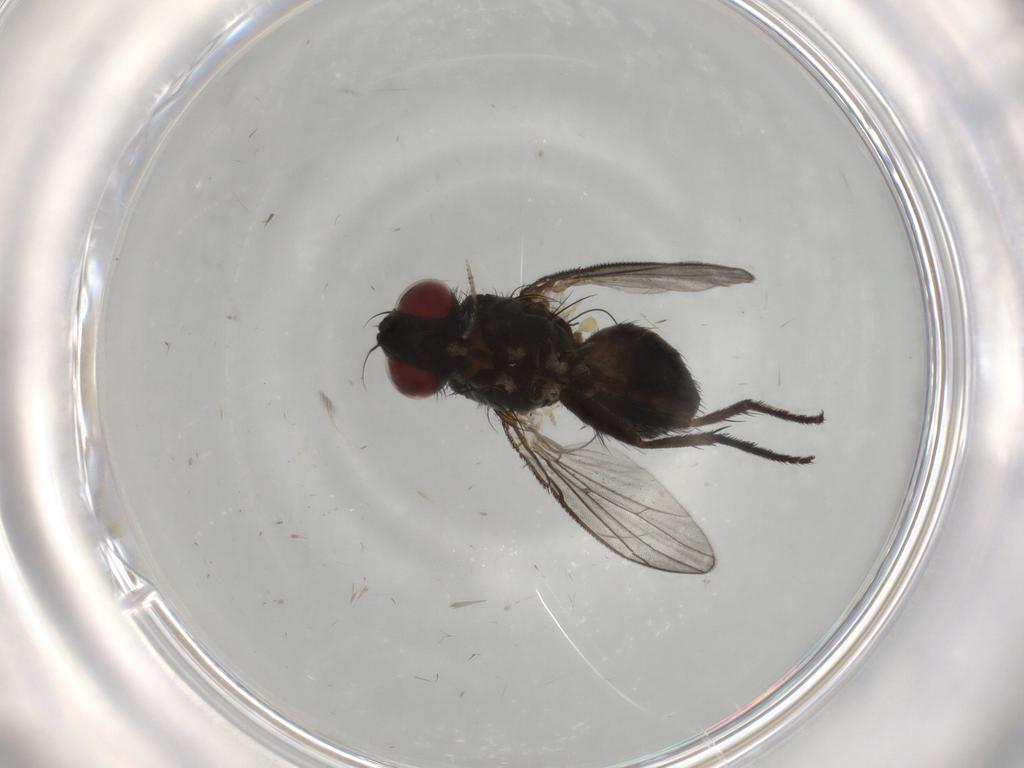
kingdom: Animalia
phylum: Arthropoda
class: Insecta
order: Diptera
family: Muscidae
